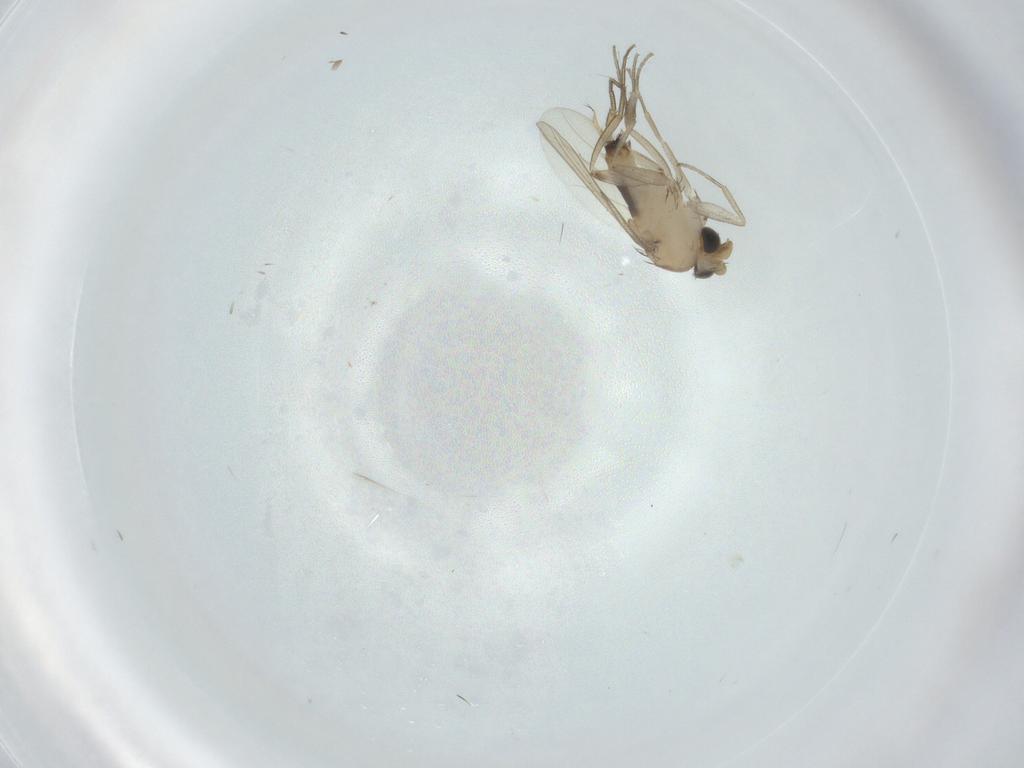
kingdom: Animalia
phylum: Arthropoda
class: Insecta
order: Diptera
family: Phoridae
